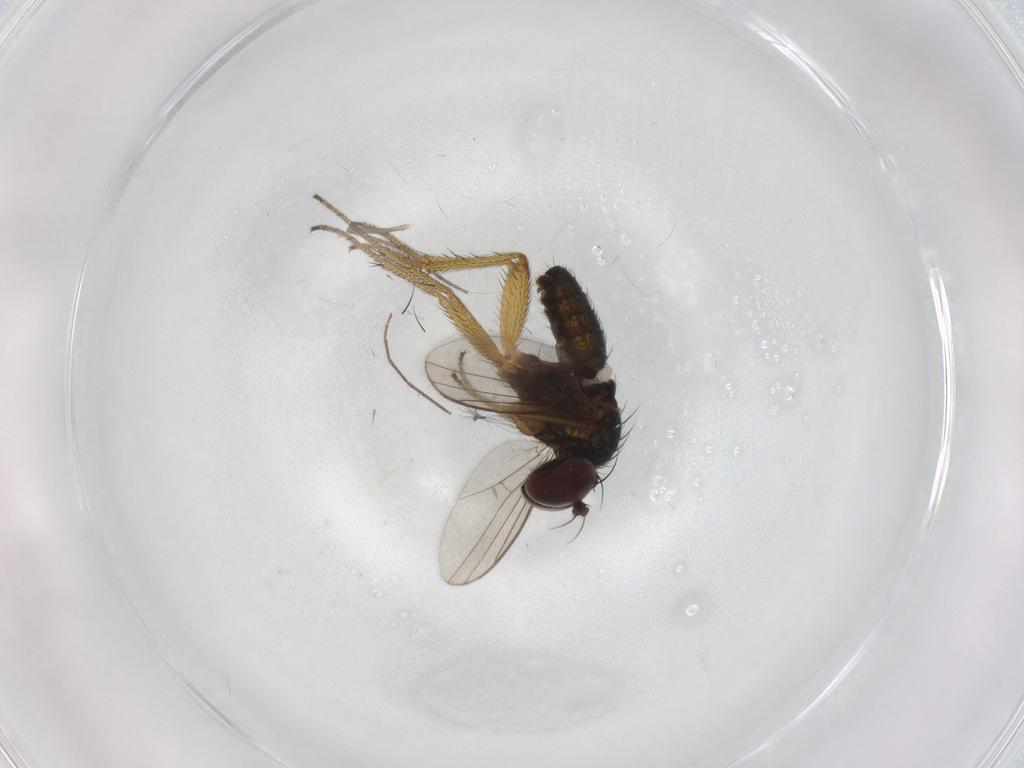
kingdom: Animalia
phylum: Arthropoda
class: Insecta
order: Diptera
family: Chironomidae
